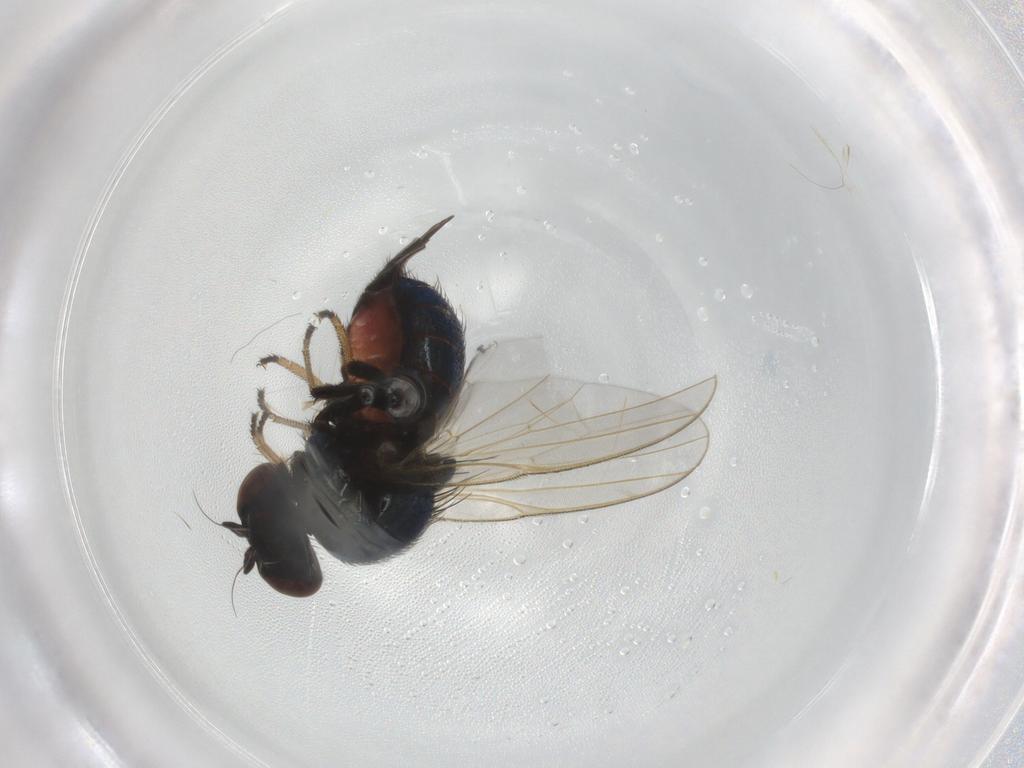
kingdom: Animalia
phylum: Arthropoda
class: Insecta
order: Diptera
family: Lonchaeidae
